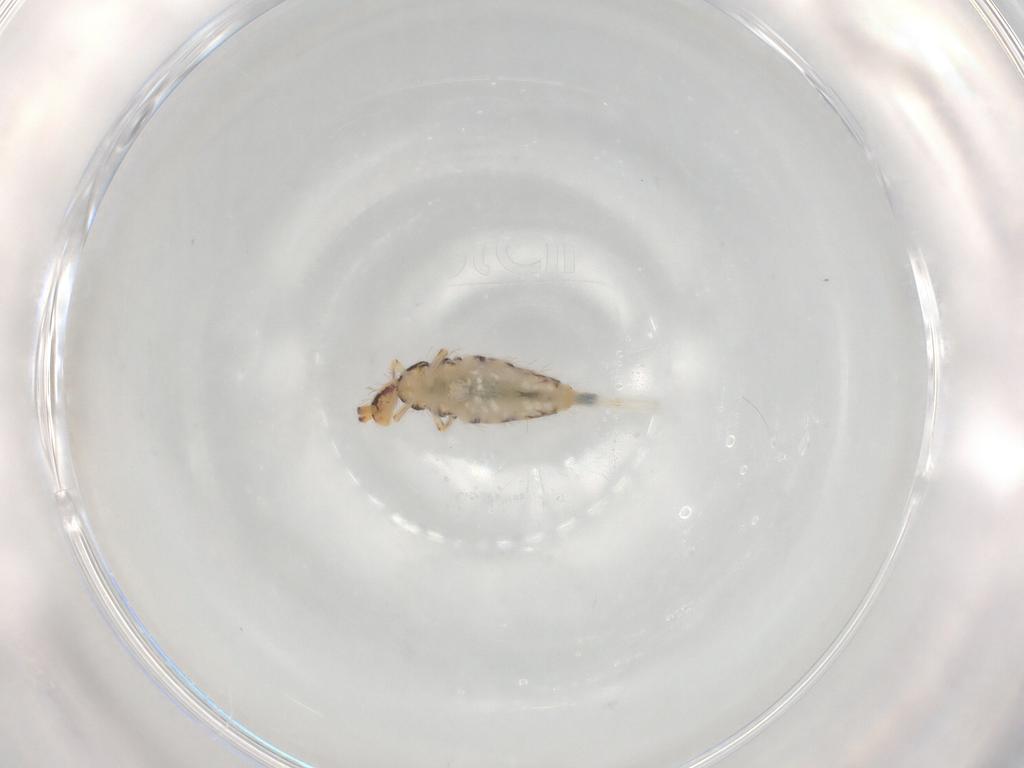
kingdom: Animalia
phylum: Arthropoda
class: Collembola
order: Entomobryomorpha
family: Entomobryidae
